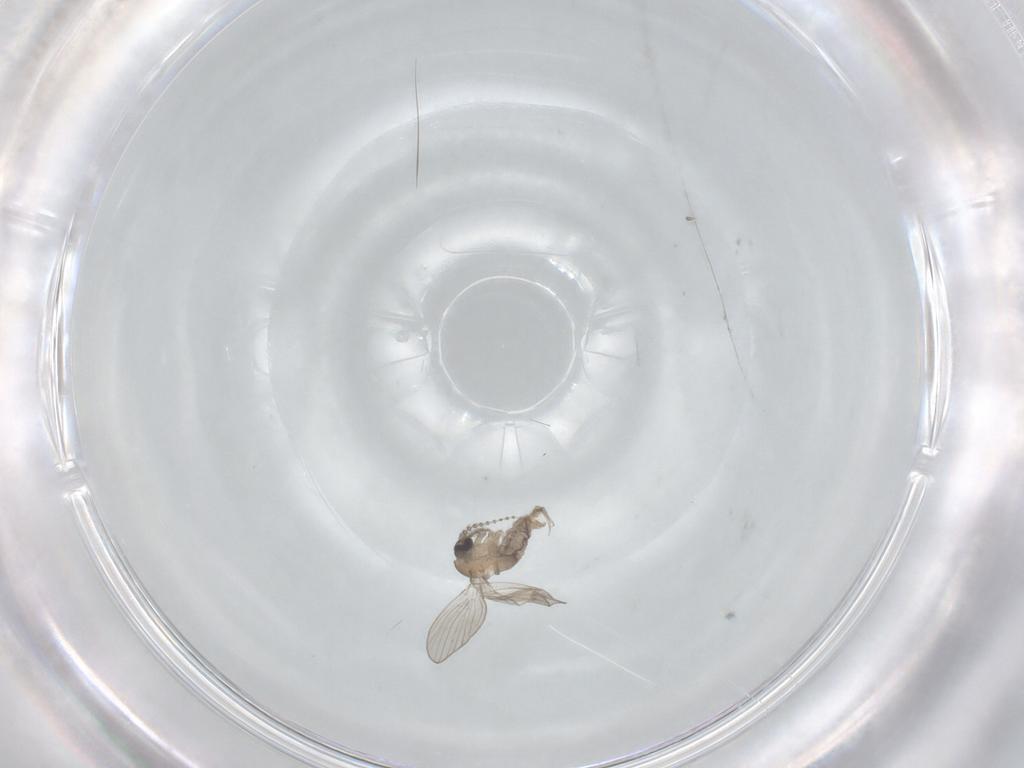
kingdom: Animalia
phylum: Arthropoda
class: Insecta
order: Diptera
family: Psychodidae
